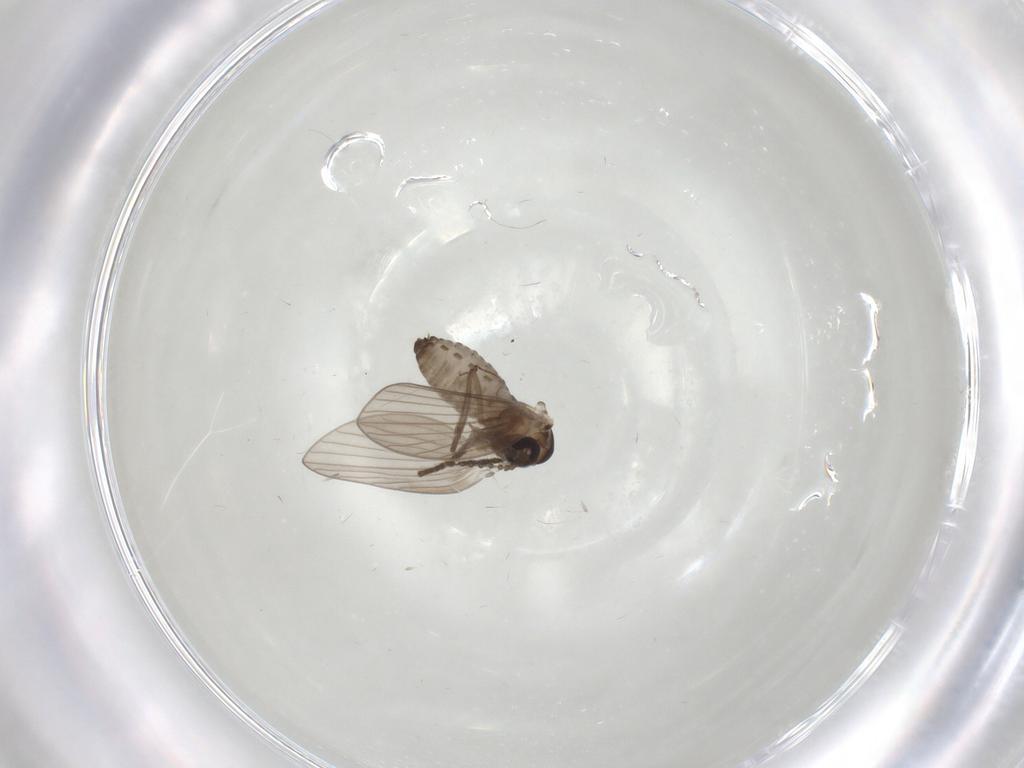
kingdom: Animalia
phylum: Arthropoda
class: Insecta
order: Diptera
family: Psychodidae
